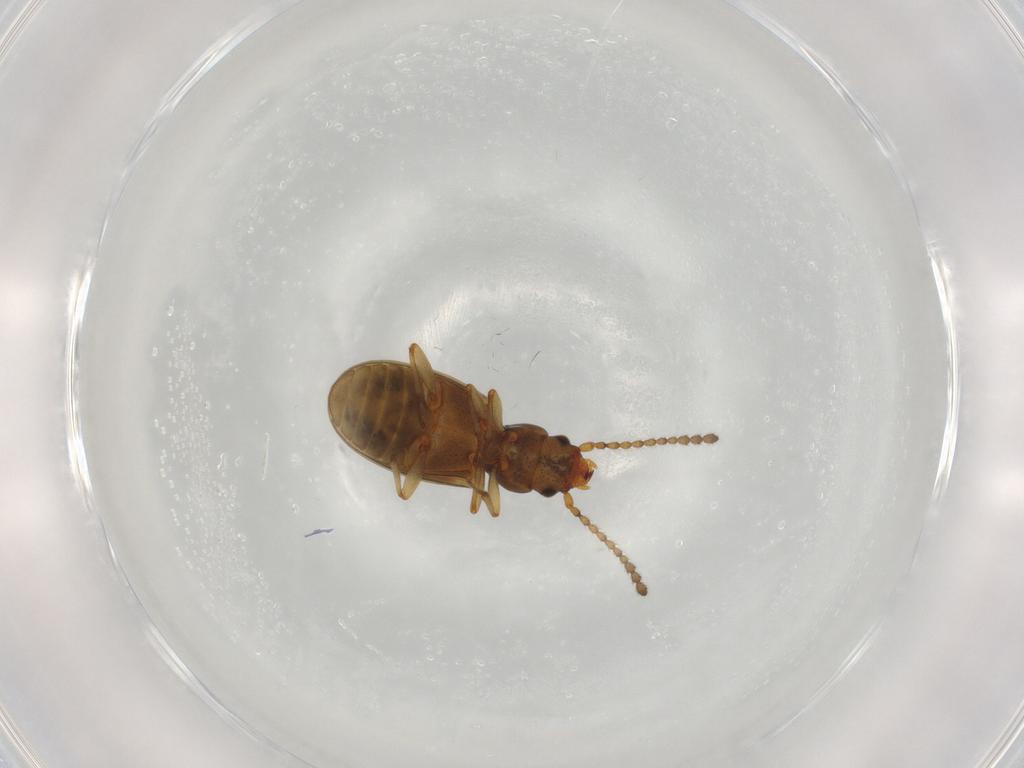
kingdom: Animalia
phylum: Arthropoda
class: Insecta
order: Coleoptera
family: Laemophloeidae
